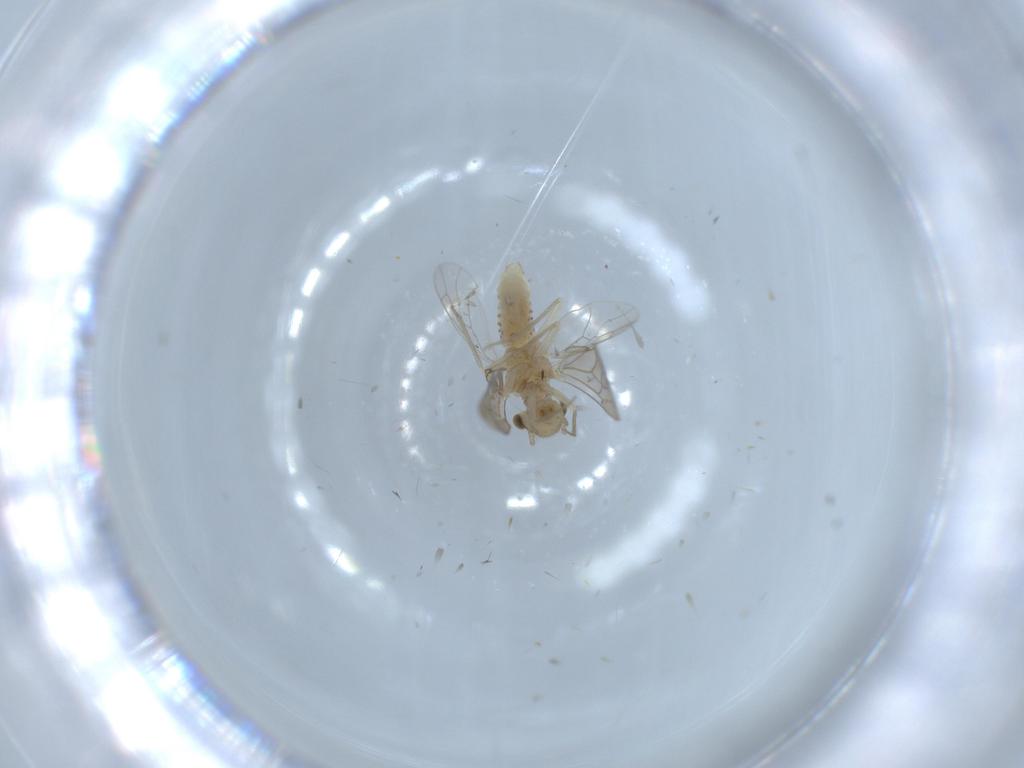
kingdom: Animalia
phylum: Arthropoda
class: Insecta
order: Psocodea
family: Lachesillidae
